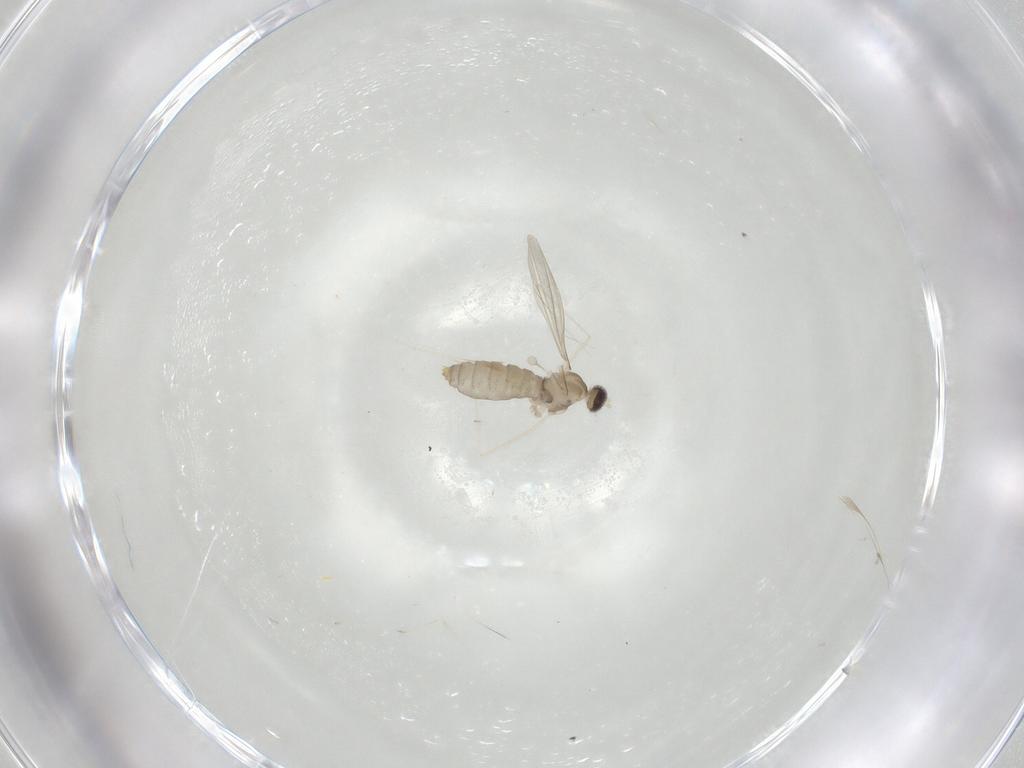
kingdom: Animalia
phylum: Arthropoda
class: Insecta
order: Diptera
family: Cecidomyiidae
